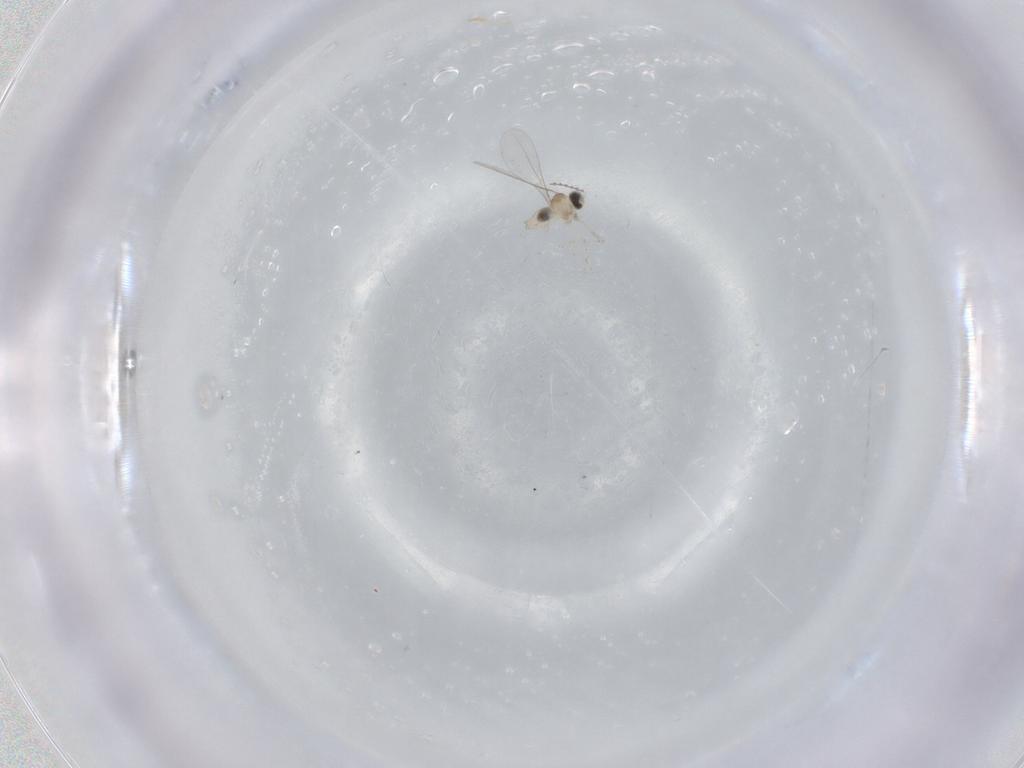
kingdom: Animalia
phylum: Arthropoda
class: Insecta
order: Diptera
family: Cecidomyiidae
